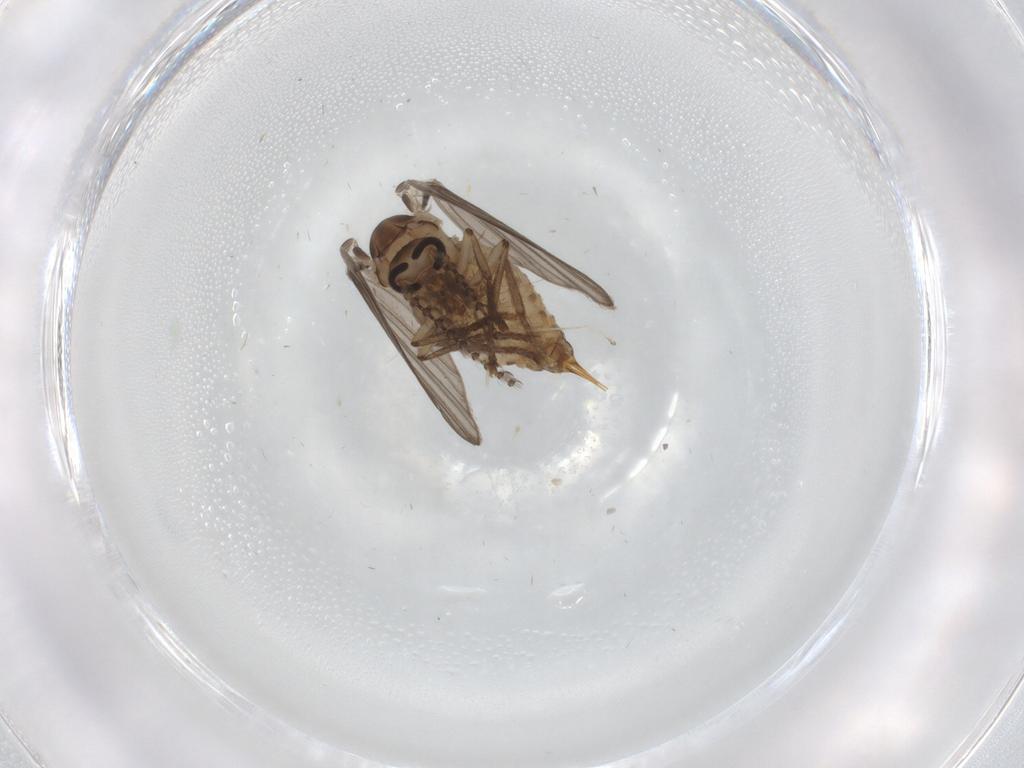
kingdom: Animalia
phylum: Arthropoda
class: Insecta
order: Diptera
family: Psychodidae
